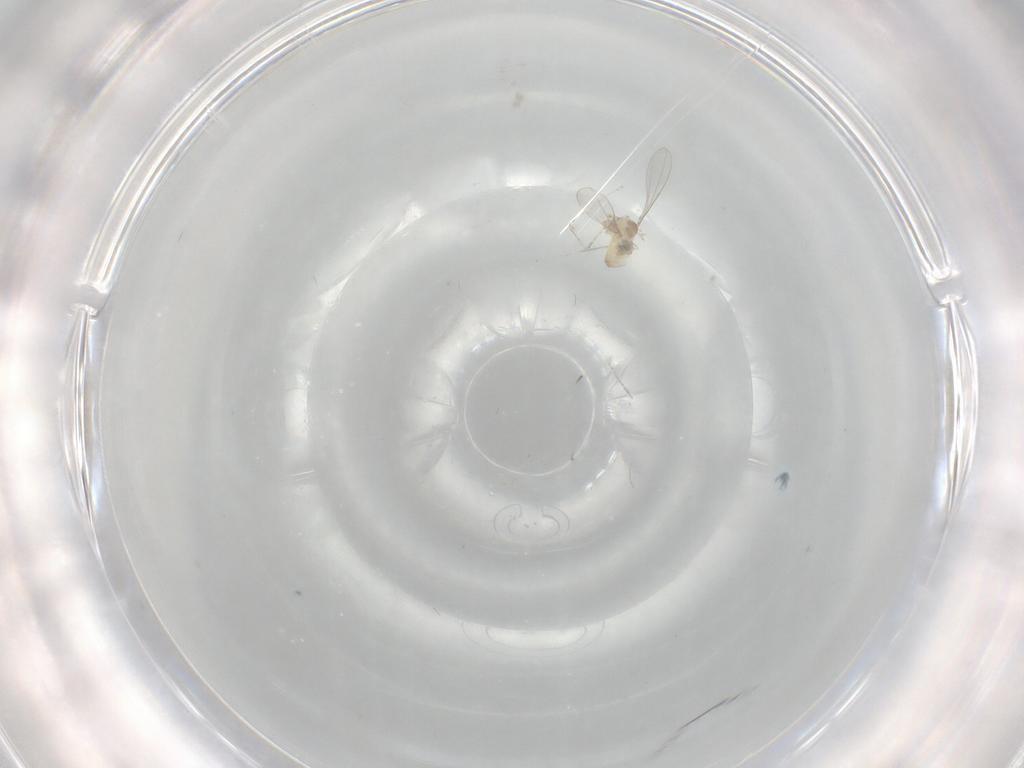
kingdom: Animalia
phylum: Arthropoda
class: Insecta
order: Diptera
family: Cecidomyiidae
